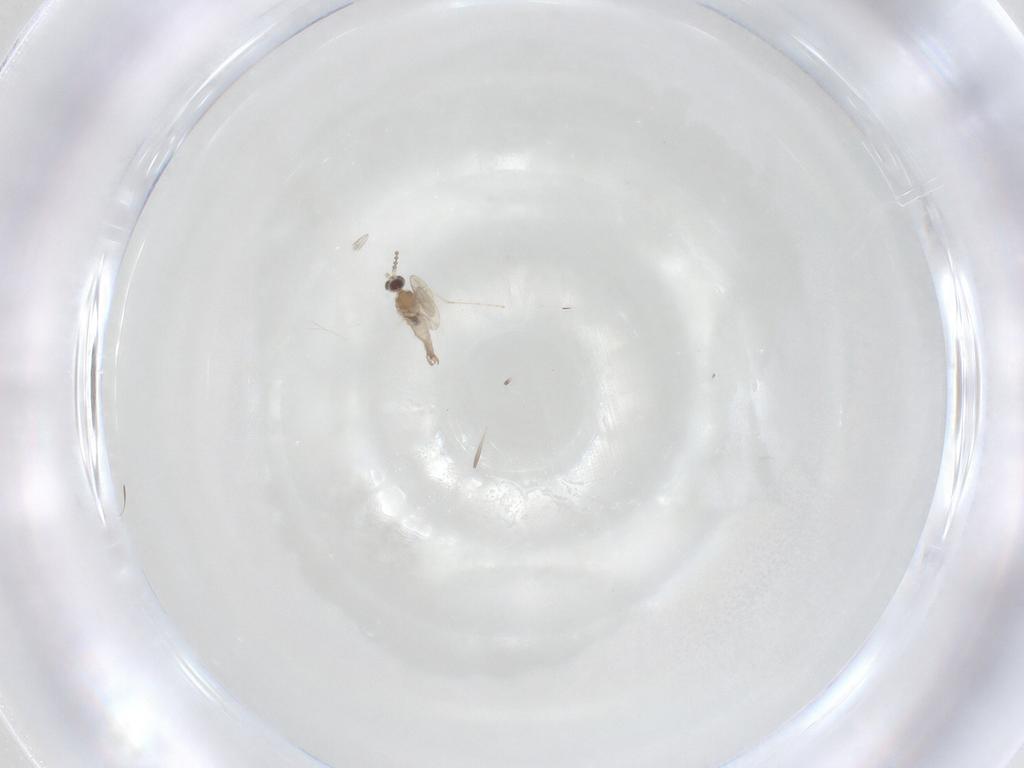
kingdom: Animalia
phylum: Arthropoda
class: Insecta
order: Diptera
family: Cecidomyiidae
